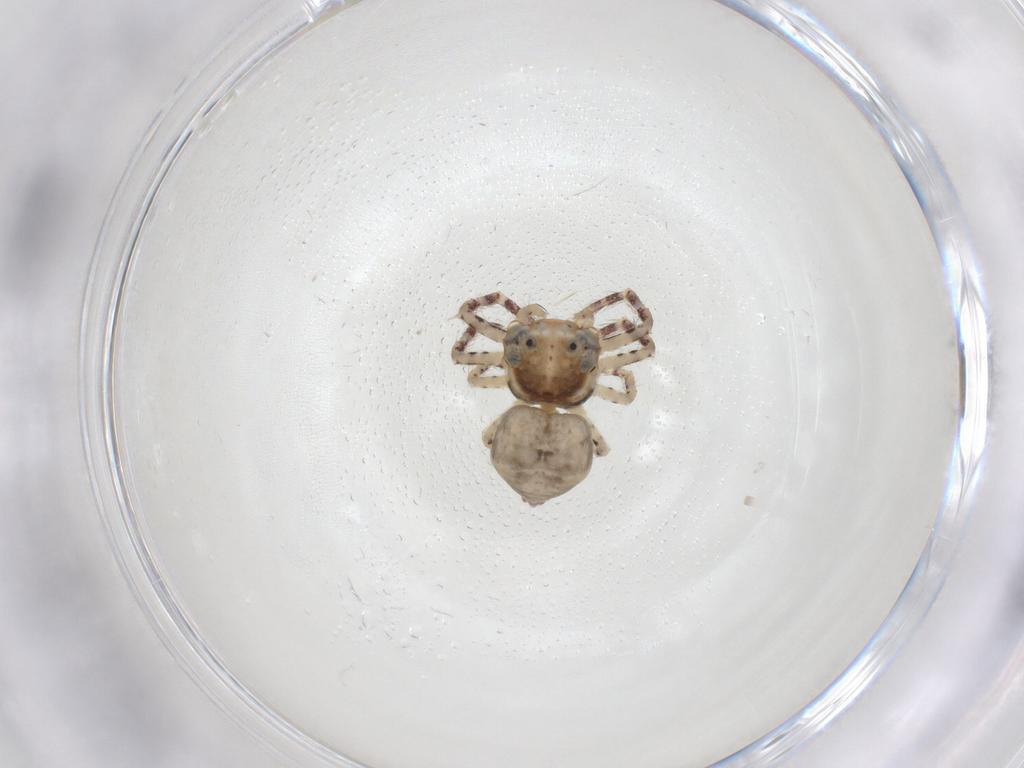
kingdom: Animalia
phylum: Arthropoda
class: Arachnida
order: Araneae
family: Thomisidae
